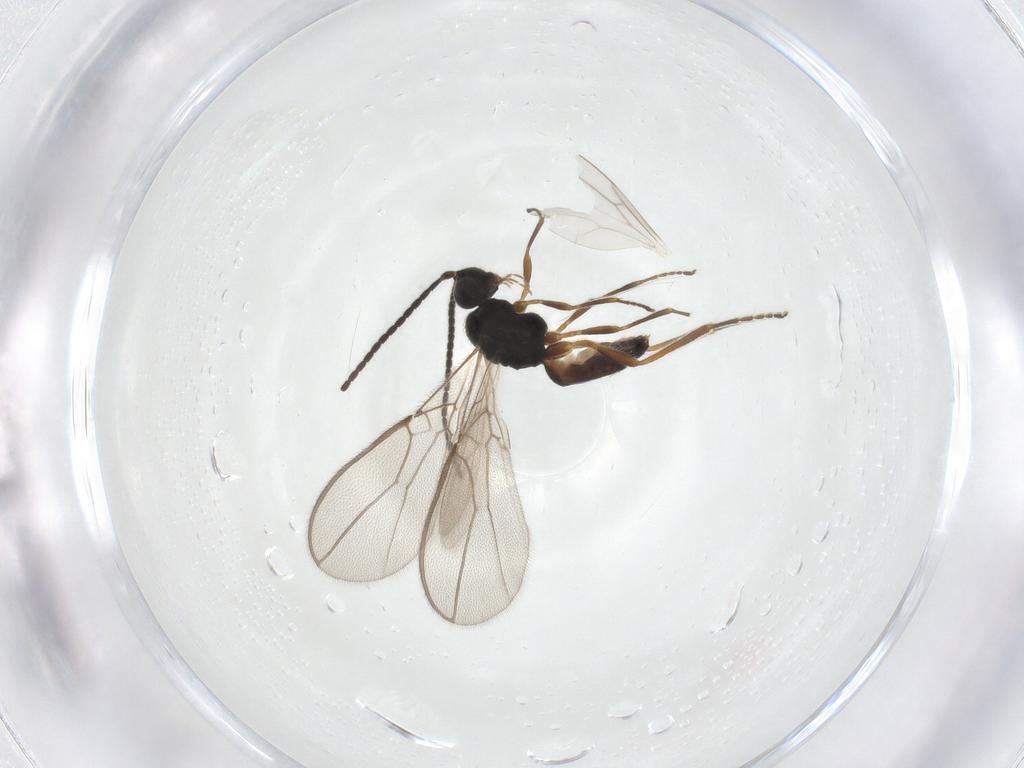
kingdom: Animalia
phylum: Arthropoda
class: Insecta
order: Hymenoptera
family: Braconidae
